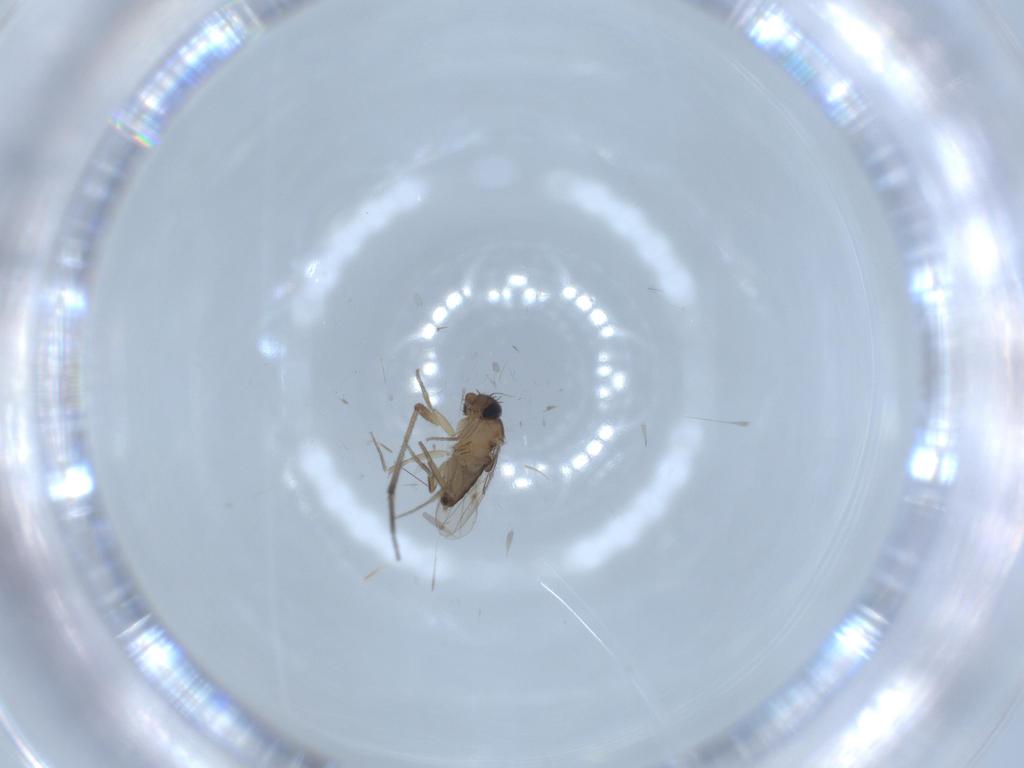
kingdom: Animalia
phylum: Arthropoda
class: Insecta
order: Diptera
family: Phoridae
